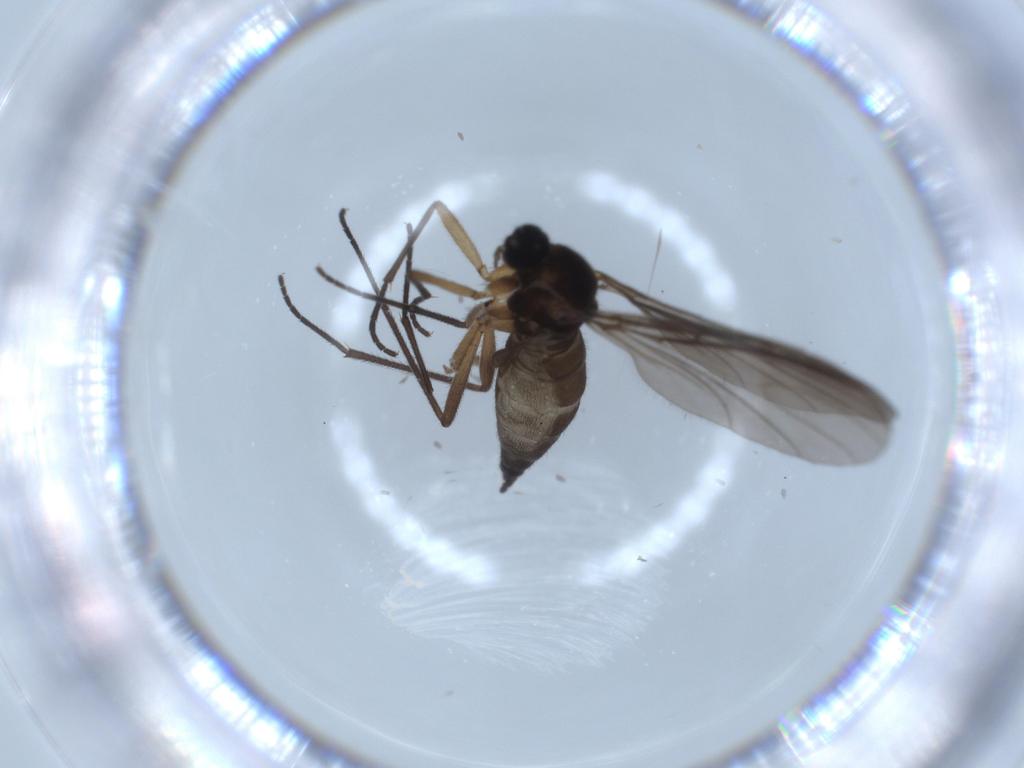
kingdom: Animalia
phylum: Arthropoda
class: Insecta
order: Diptera
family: Sciaridae
